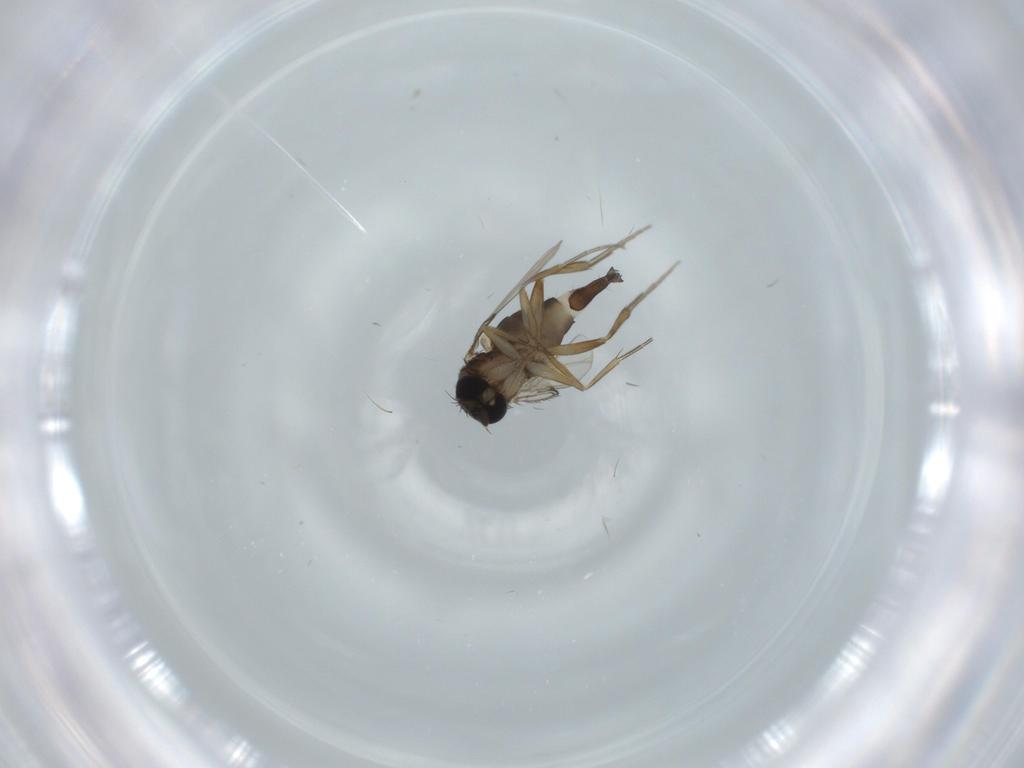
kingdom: Animalia
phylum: Arthropoda
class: Insecta
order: Diptera
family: Phoridae
